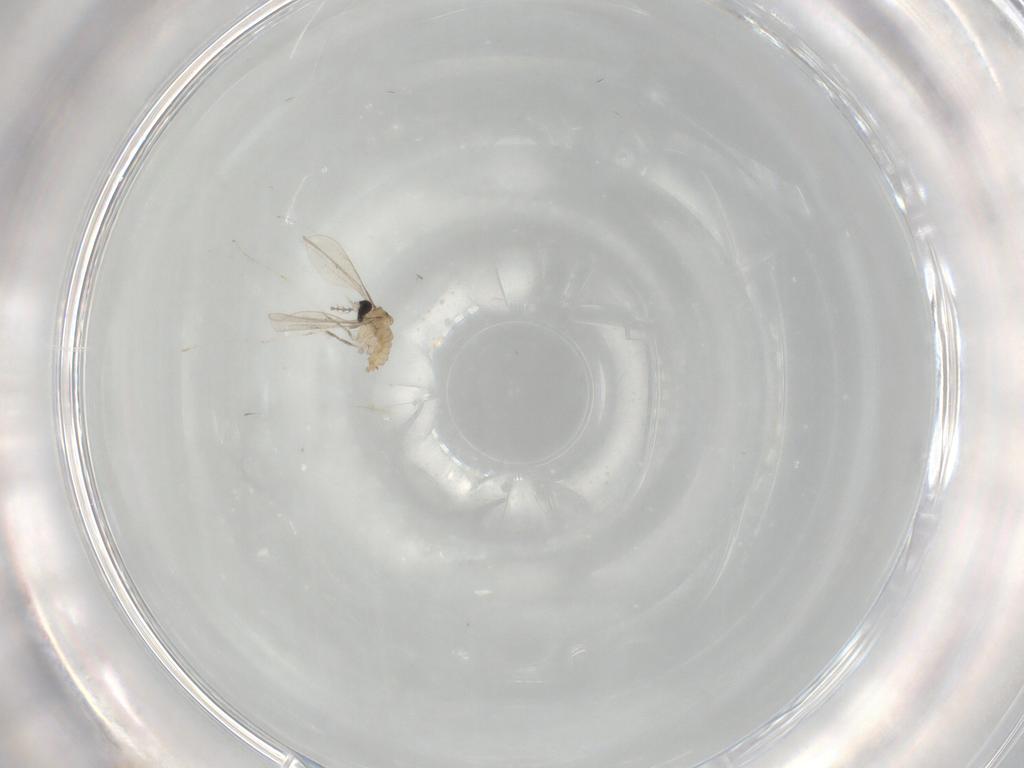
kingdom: Animalia
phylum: Arthropoda
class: Insecta
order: Diptera
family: Cecidomyiidae
